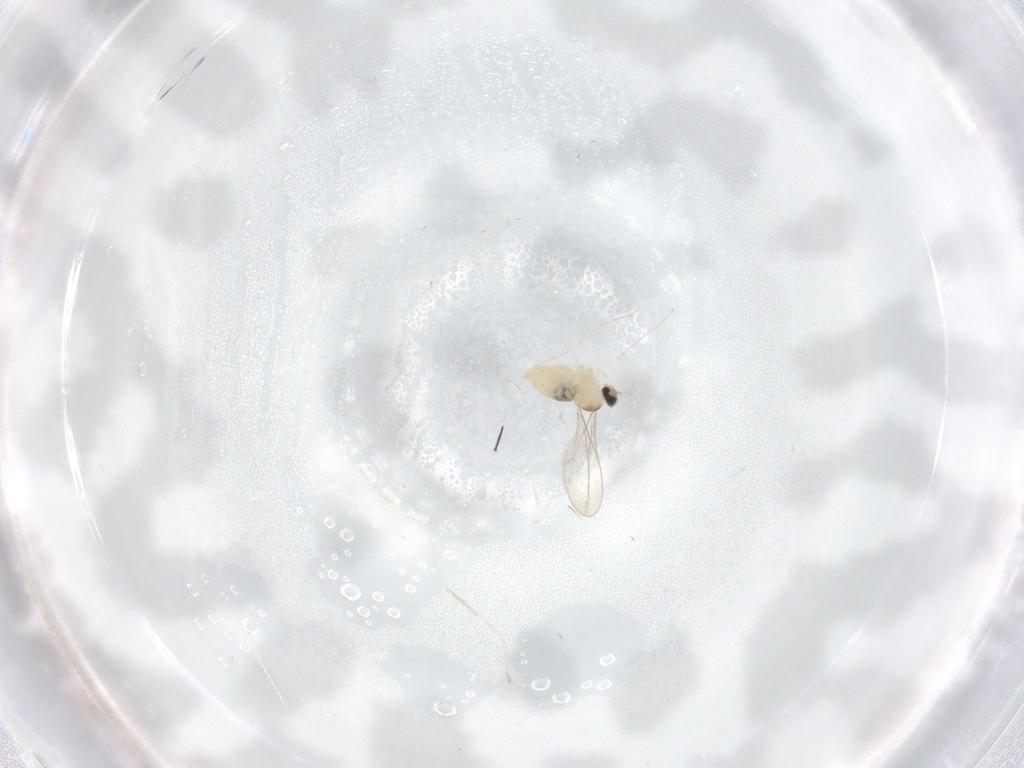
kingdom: Animalia
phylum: Arthropoda
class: Insecta
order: Diptera
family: Cecidomyiidae
